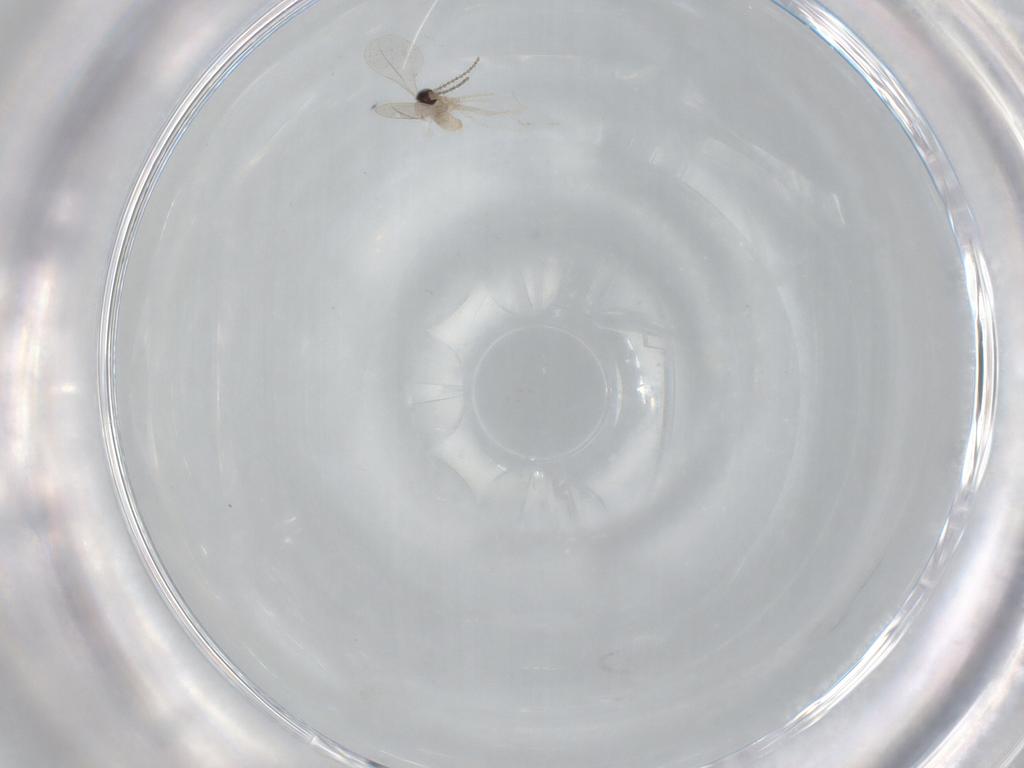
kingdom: Animalia
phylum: Arthropoda
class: Insecta
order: Diptera
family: Cecidomyiidae
